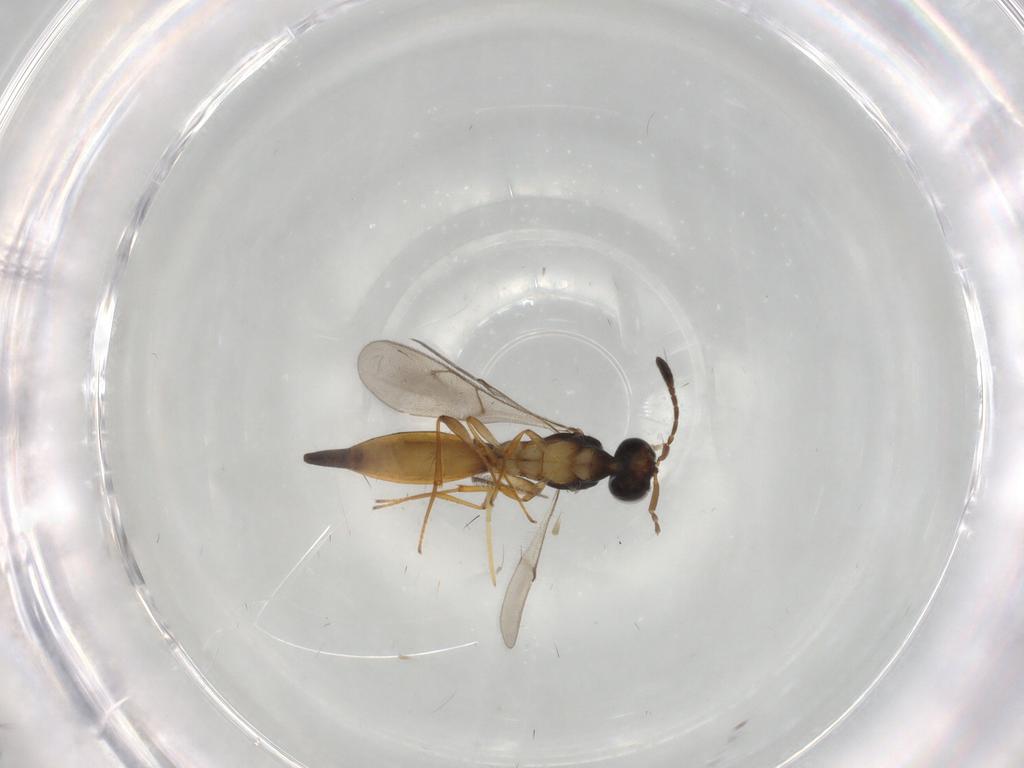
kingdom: Animalia
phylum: Arthropoda
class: Insecta
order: Hymenoptera
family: Scelionidae
